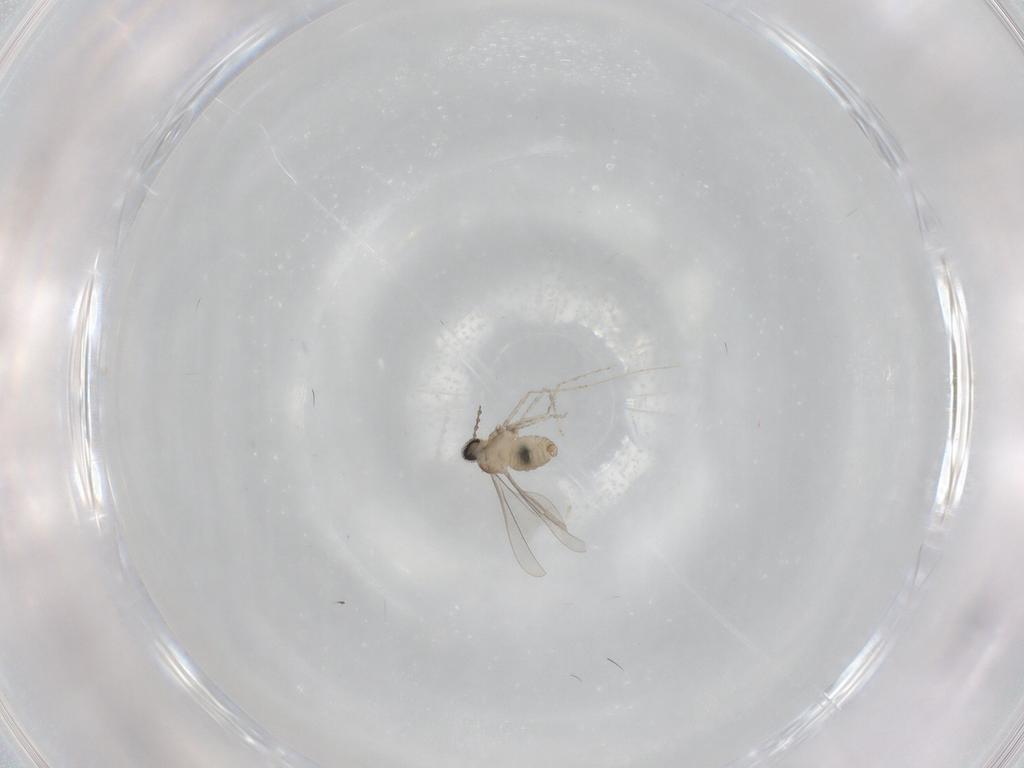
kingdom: Animalia
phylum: Arthropoda
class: Insecta
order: Diptera
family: Cecidomyiidae
